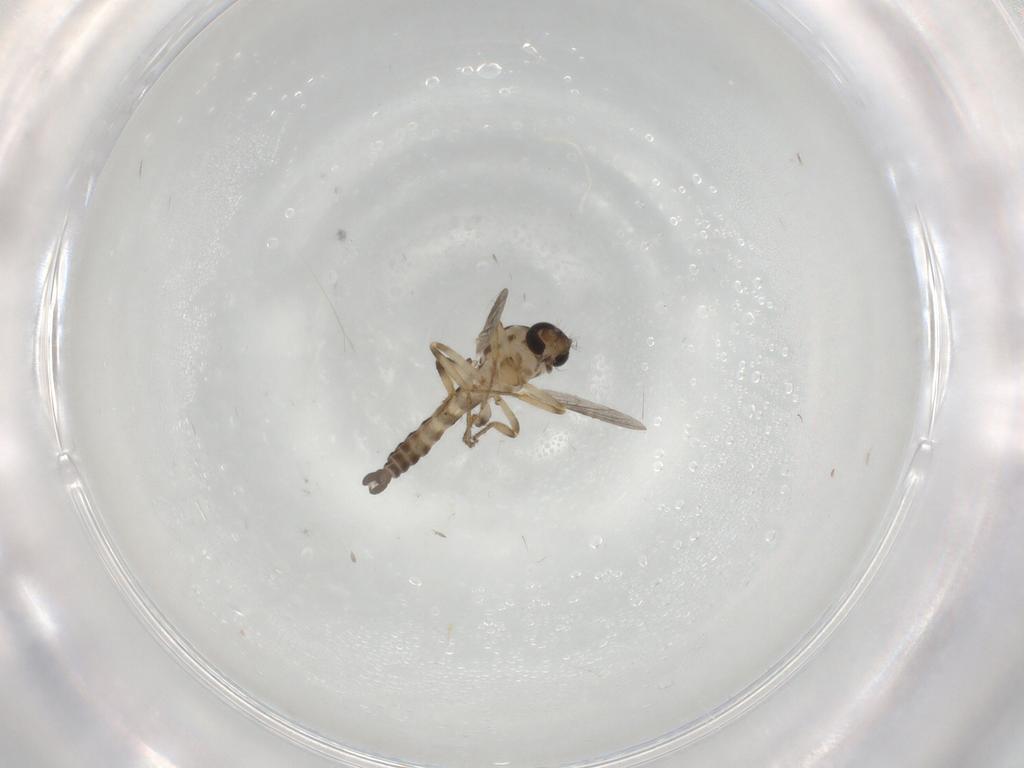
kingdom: Animalia
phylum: Arthropoda
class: Insecta
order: Diptera
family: Ceratopogonidae
